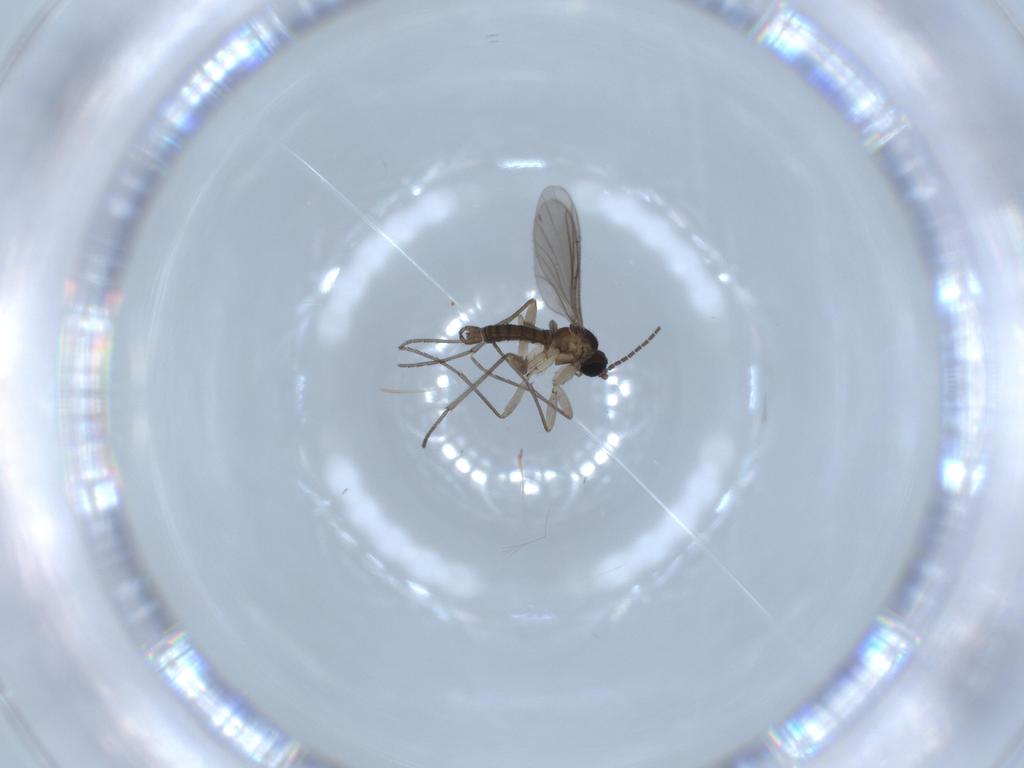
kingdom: Animalia
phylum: Arthropoda
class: Insecta
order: Diptera
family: Sciaridae
